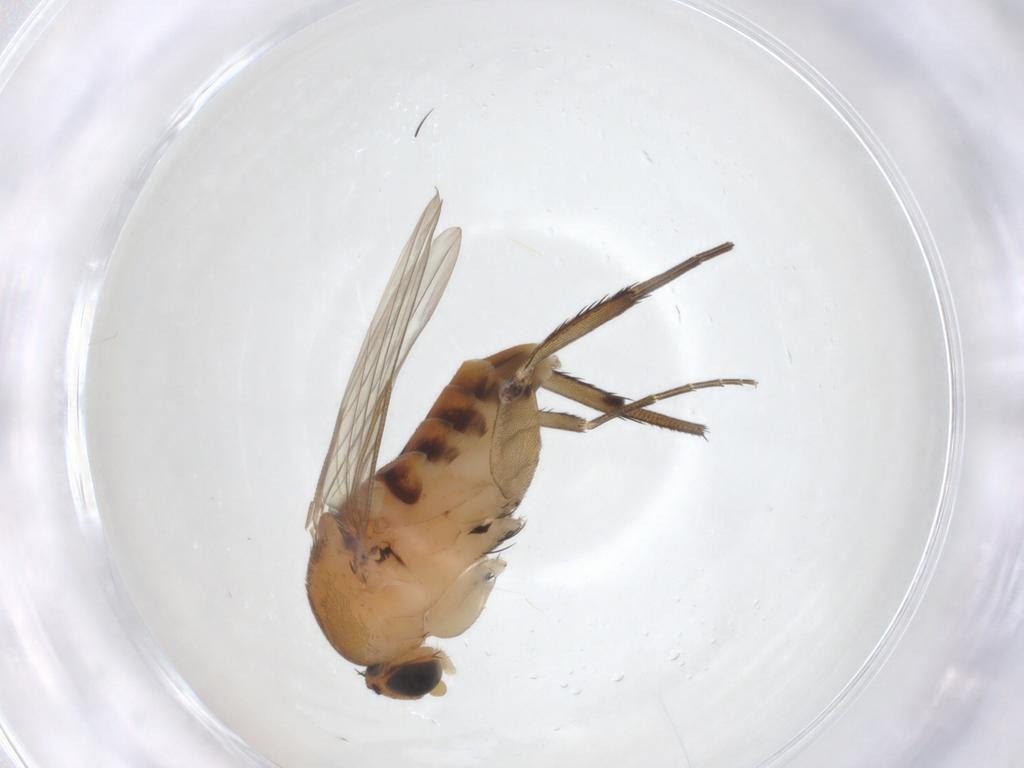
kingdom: Animalia
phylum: Arthropoda
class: Insecta
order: Diptera
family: Phoridae
